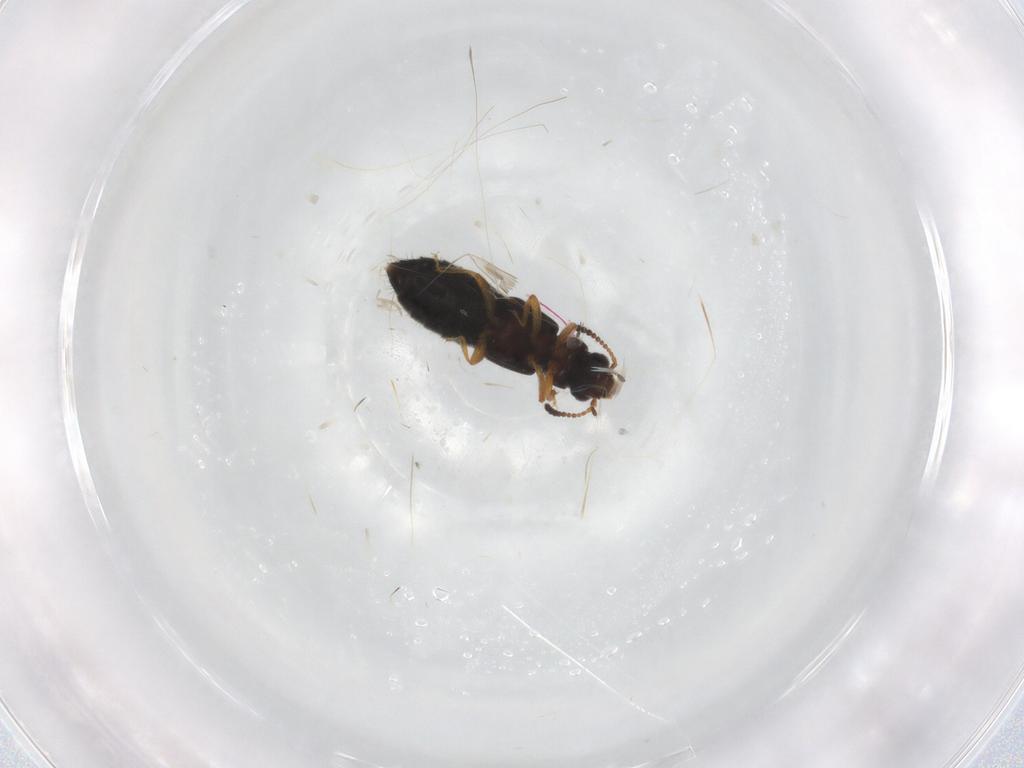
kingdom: Animalia
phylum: Arthropoda
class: Insecta
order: Coleoptera
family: Staphylinidae
